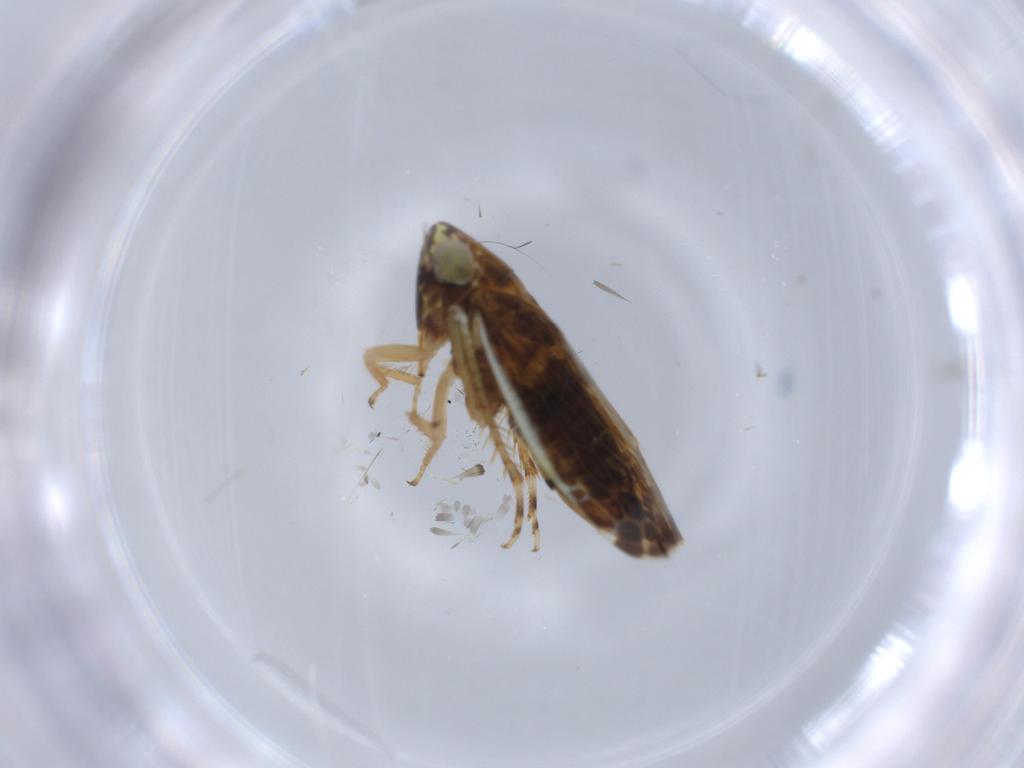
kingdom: Animalia
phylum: Arthropoda
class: Insecta
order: Hemiptera
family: Cicadellidae
